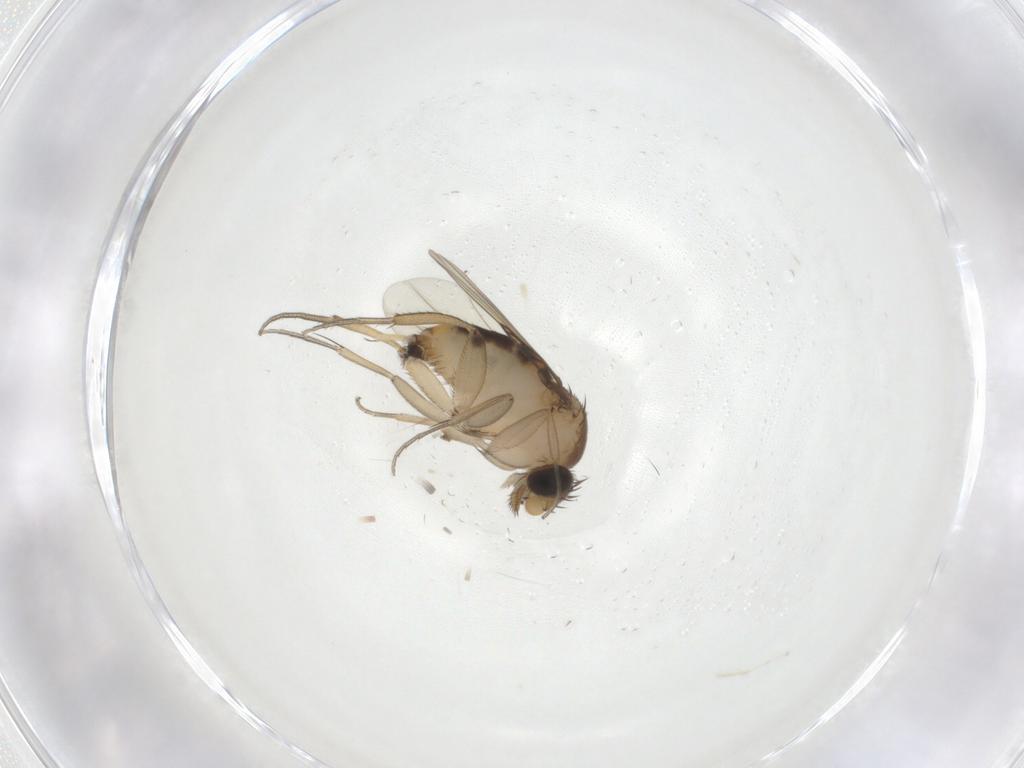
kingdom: Animalia
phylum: Arthropoda
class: Insecta
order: Diptera
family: Phoridae
